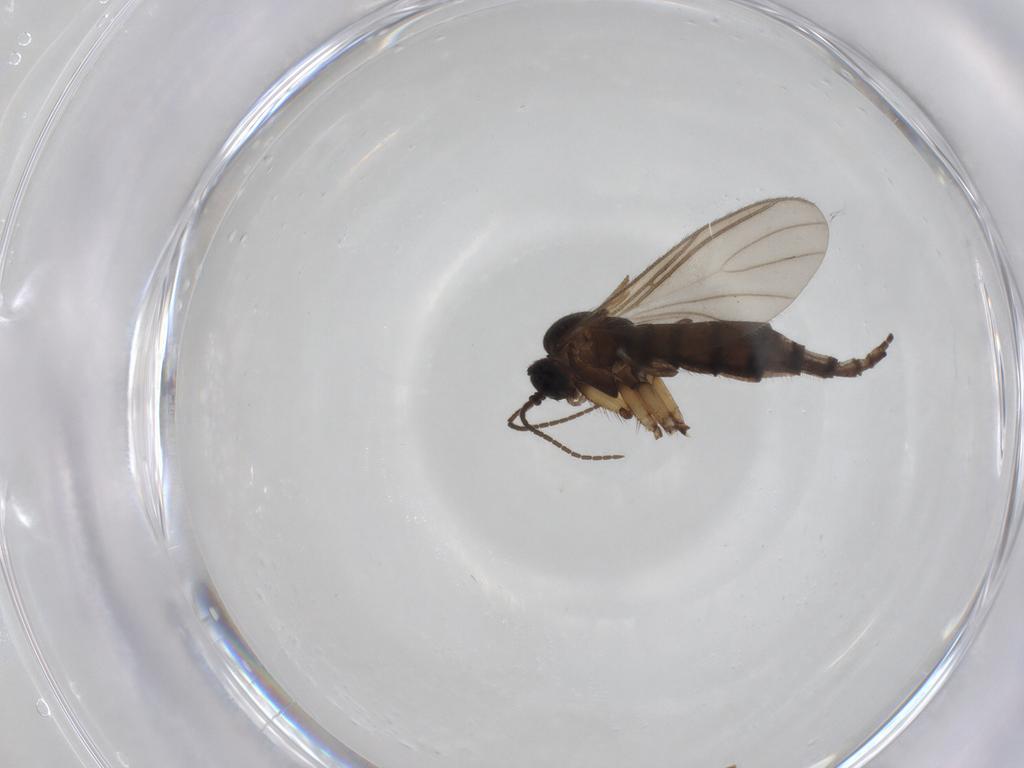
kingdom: Animalia
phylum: Arthropoda
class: Insecta
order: Diptera
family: Sciaridae
